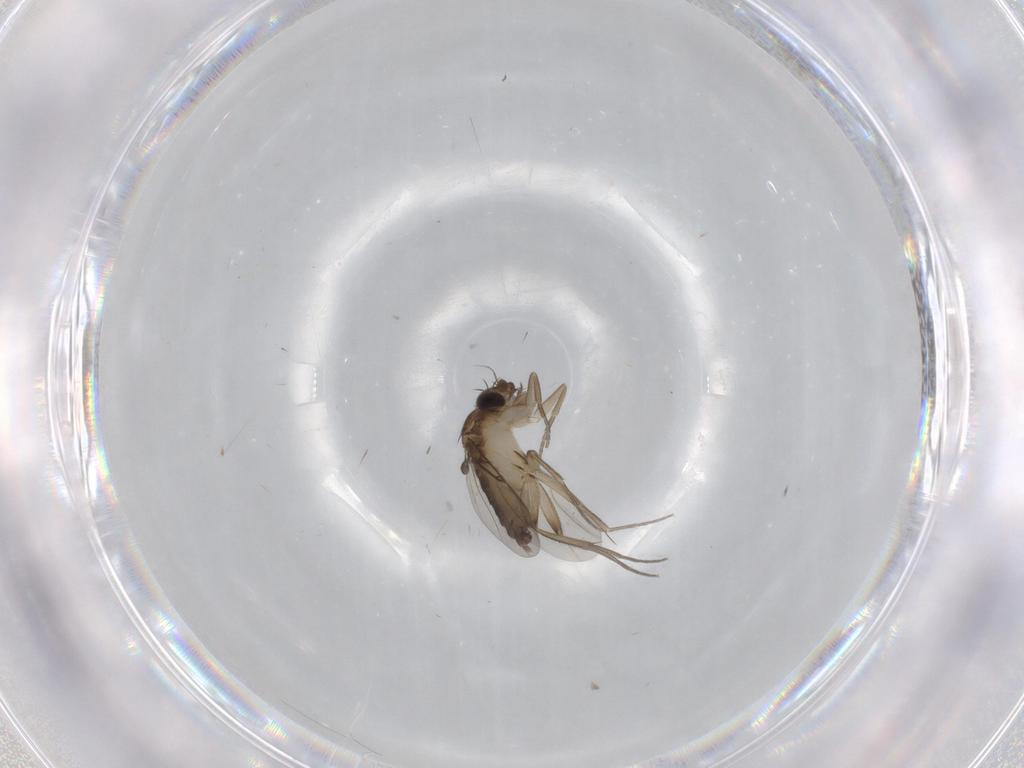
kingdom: Animalia
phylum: Arthropoda
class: Insecta
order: Diptera
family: Phoridae
